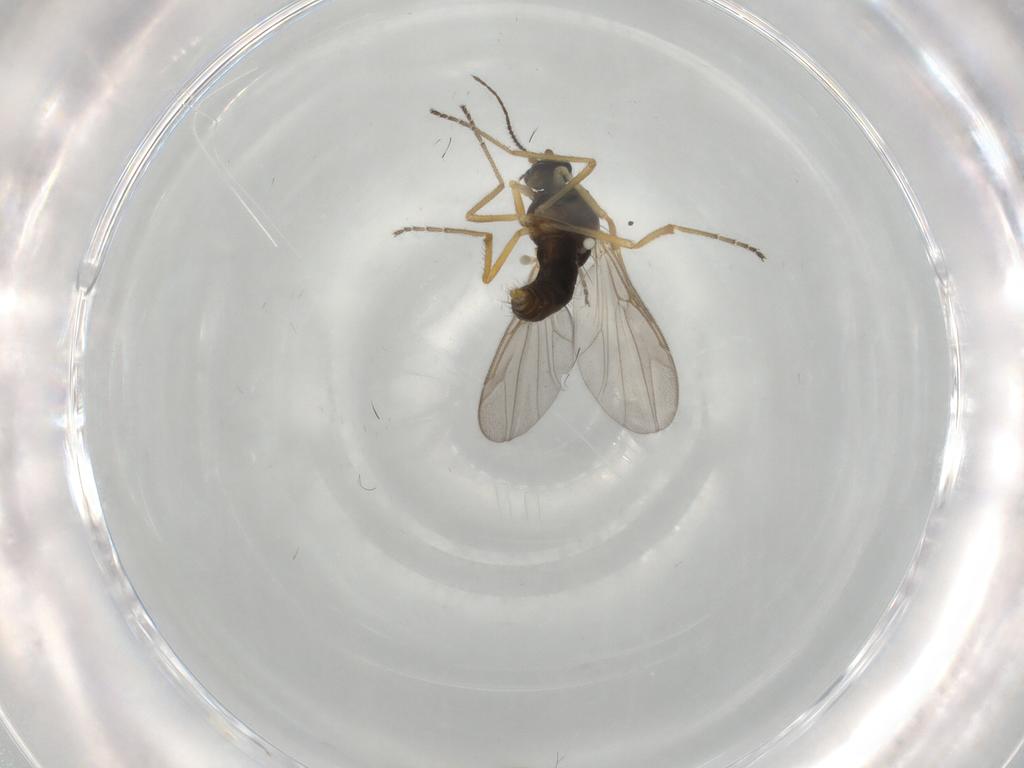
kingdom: Animalia
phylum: Arthropoda
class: Insecta
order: Diptera
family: Ceratopogonidae
